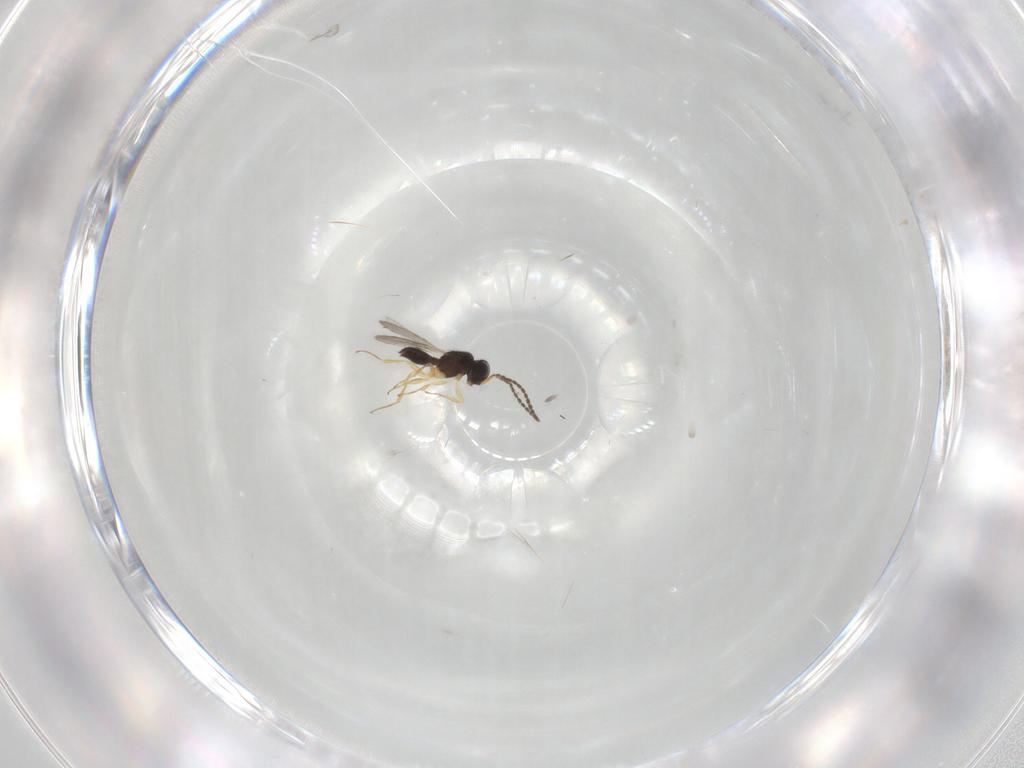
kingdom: Animalia
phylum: Arthropoda
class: Insecta
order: Hymenoptera
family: Scelionidae
